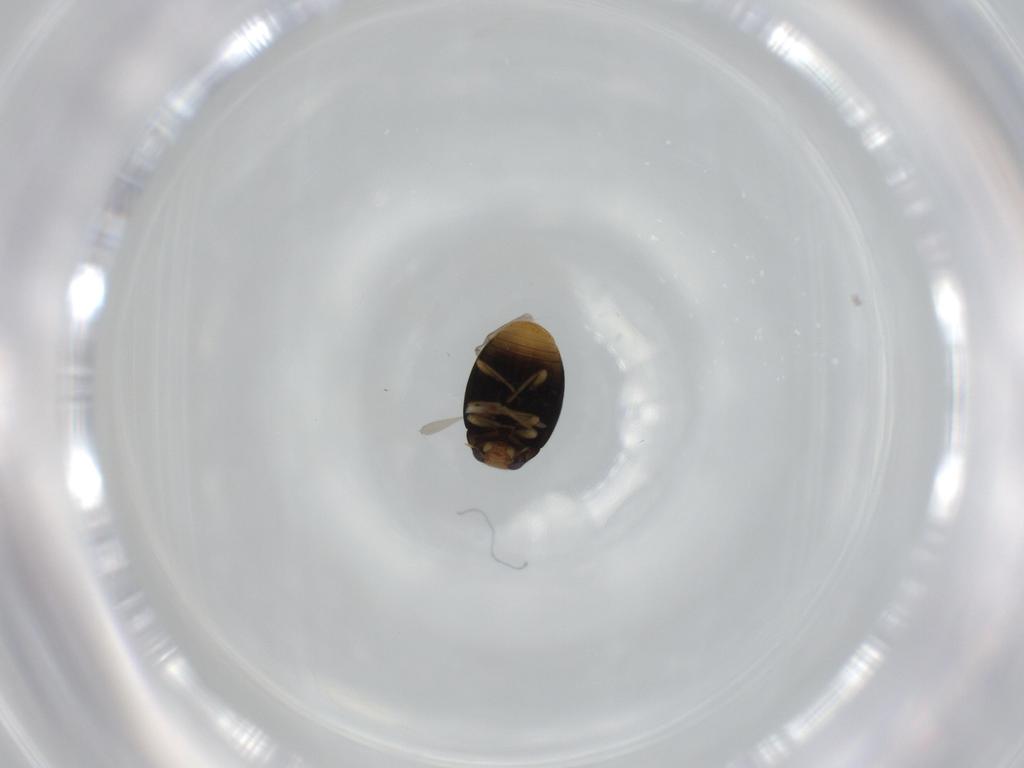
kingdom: Animalia
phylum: Arthropoda
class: Insecta
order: Coleoptera
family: Coccinellidae
